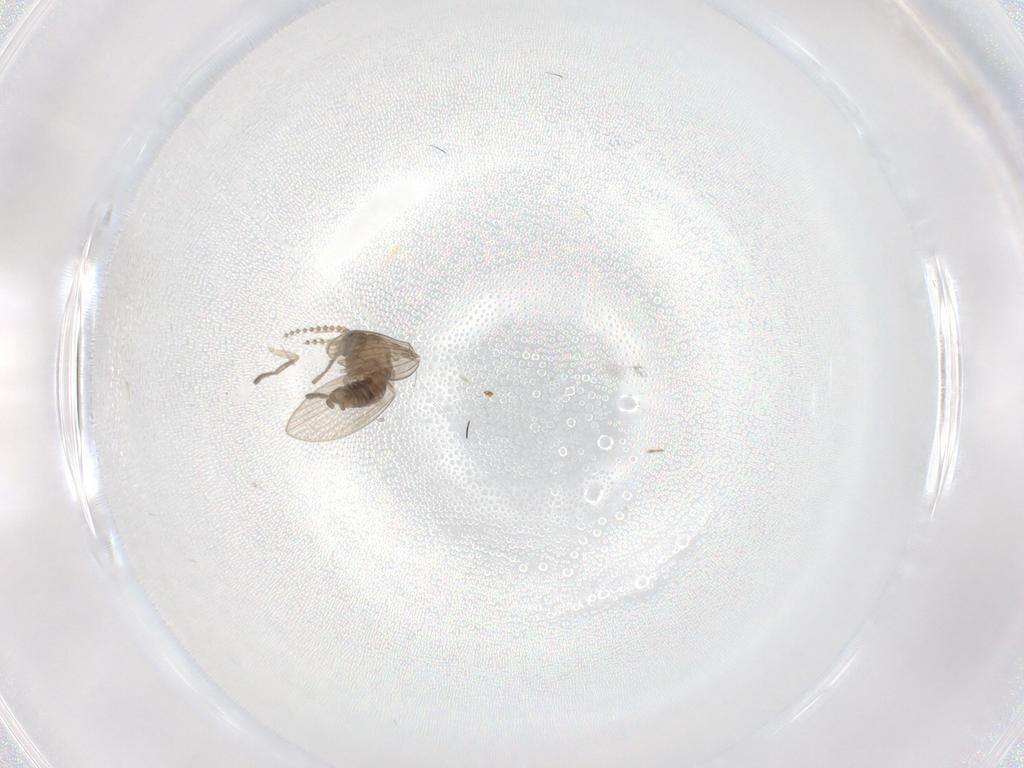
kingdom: Animalia
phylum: Arthropoda
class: Insecta
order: Diptera
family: Psychodidae
